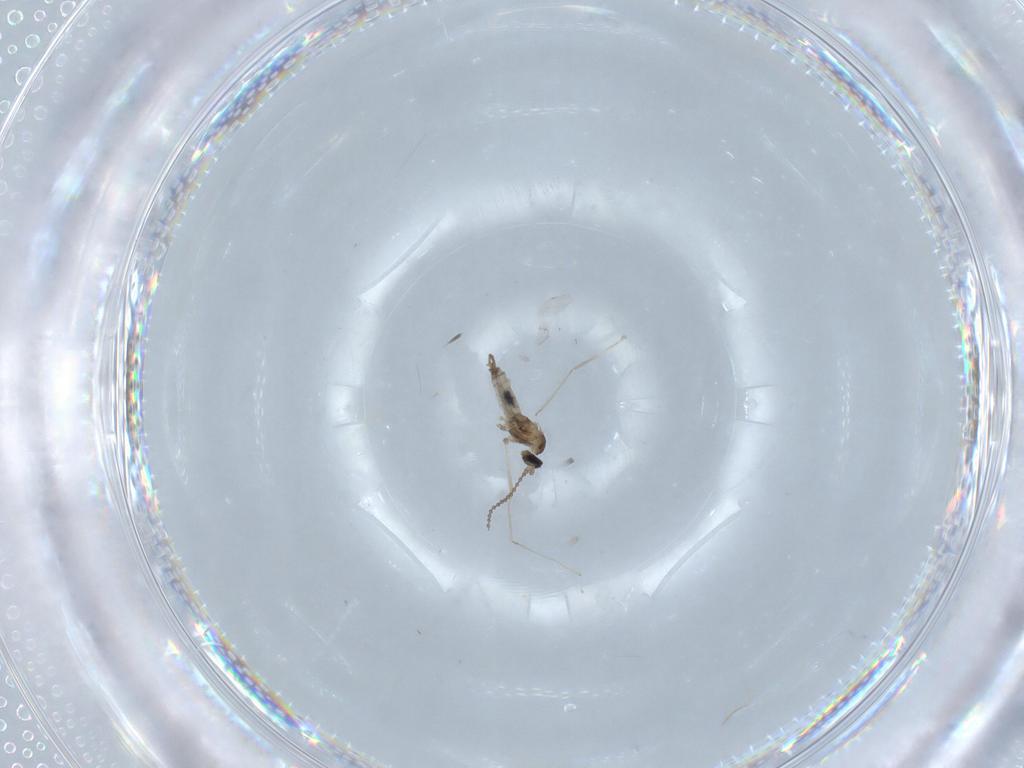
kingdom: Animalia
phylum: Arthropoda
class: Insecta
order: Diptera
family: Cecidomyiidae
